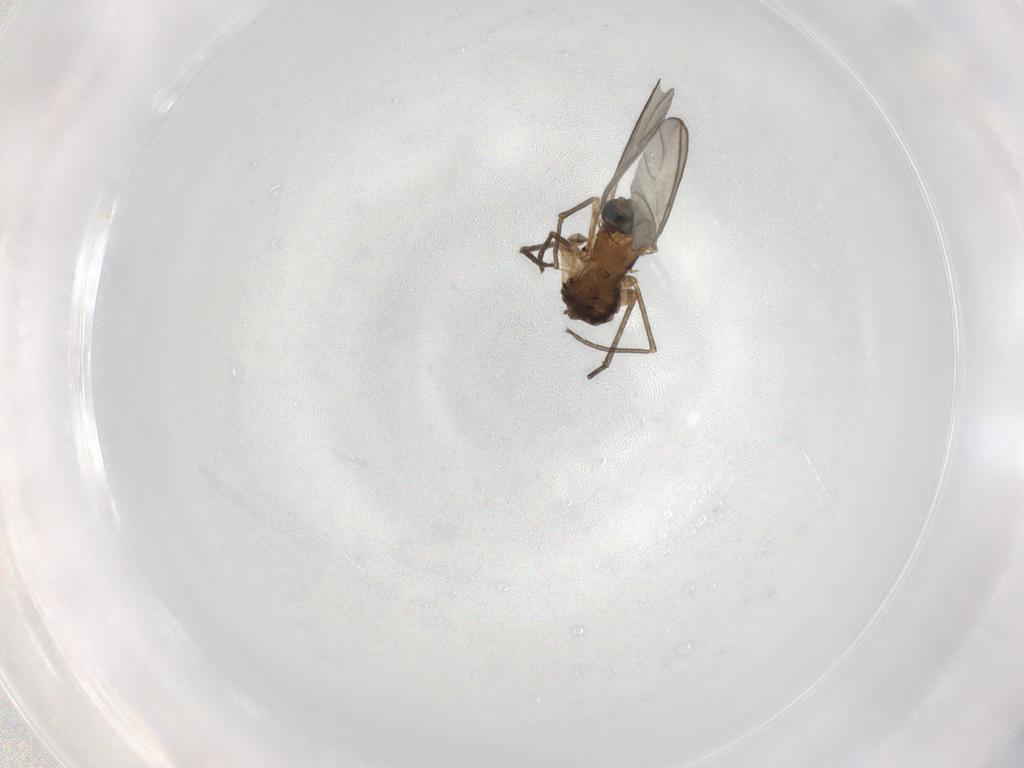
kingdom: Animalia
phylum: Arthropoda
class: Insecta
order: Diptera
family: Sciaridae
